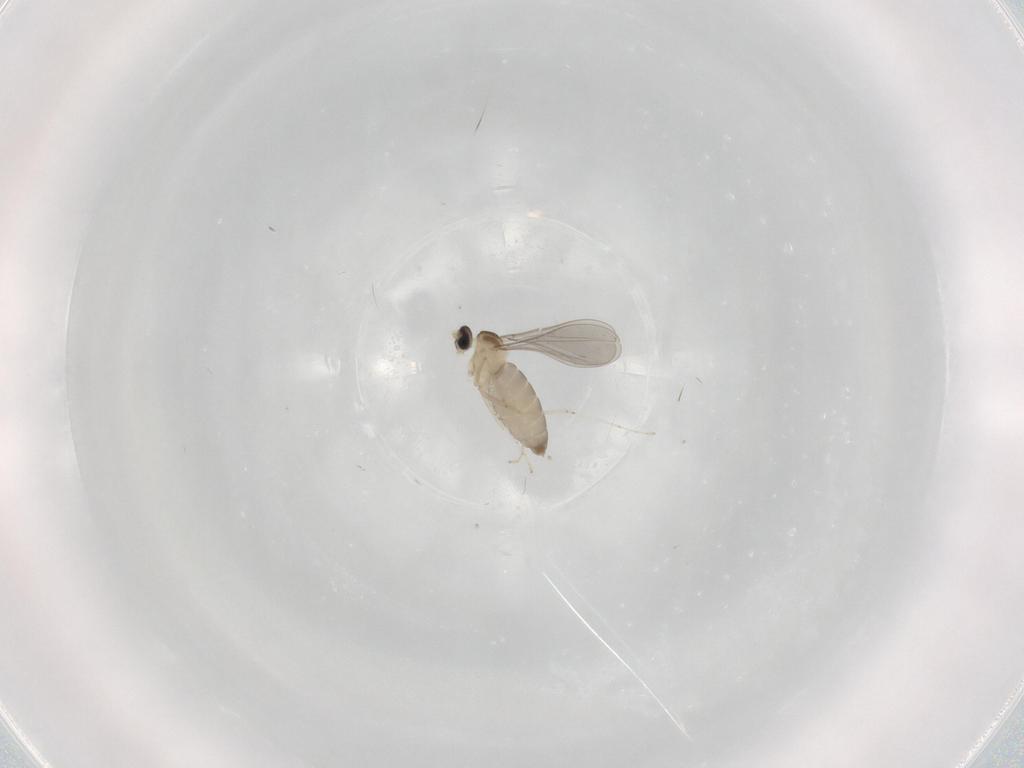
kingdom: Animalia
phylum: Arthropoda
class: Insecta
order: Diptera
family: Cecidomyiidae
